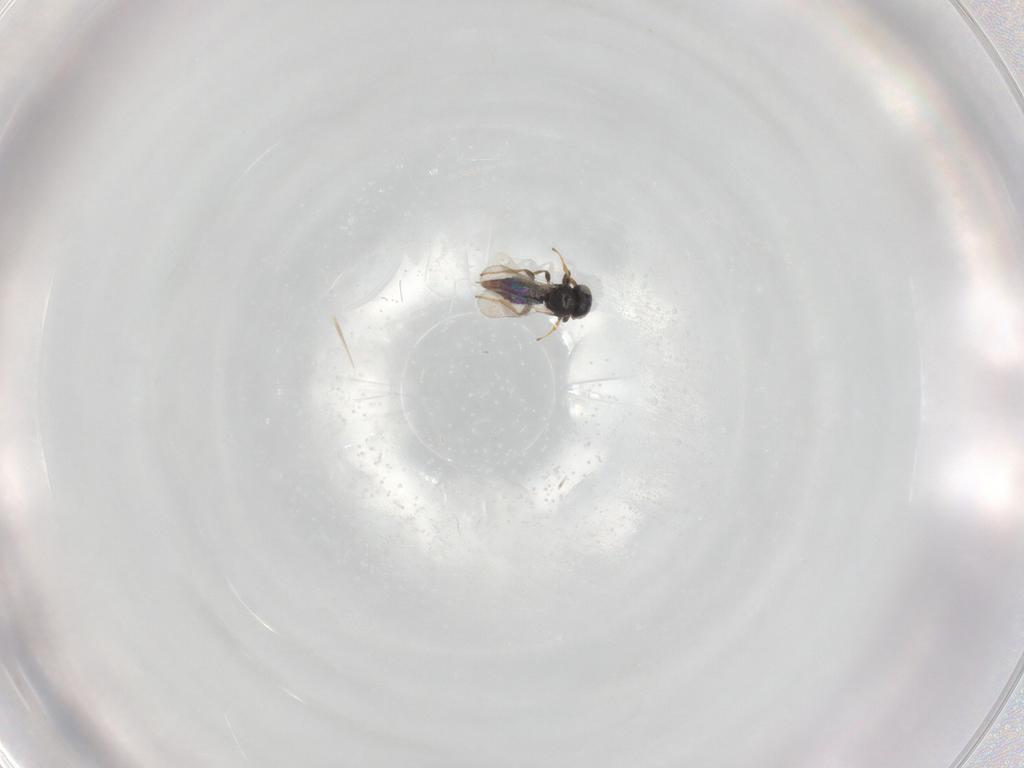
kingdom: Animalia
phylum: Arthropoda
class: Insecta
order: Hymenoptera
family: Platygastridae
